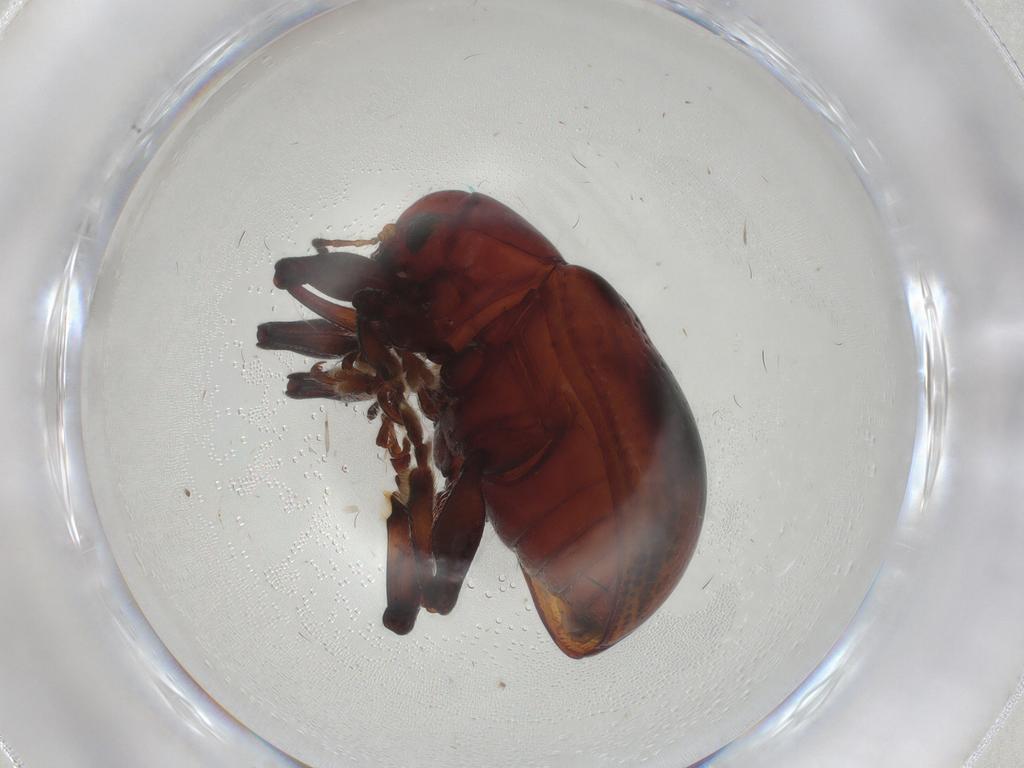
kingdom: Animalia
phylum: Arthropoda
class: Insecta
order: Coleoptera
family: Chrysomelidae
